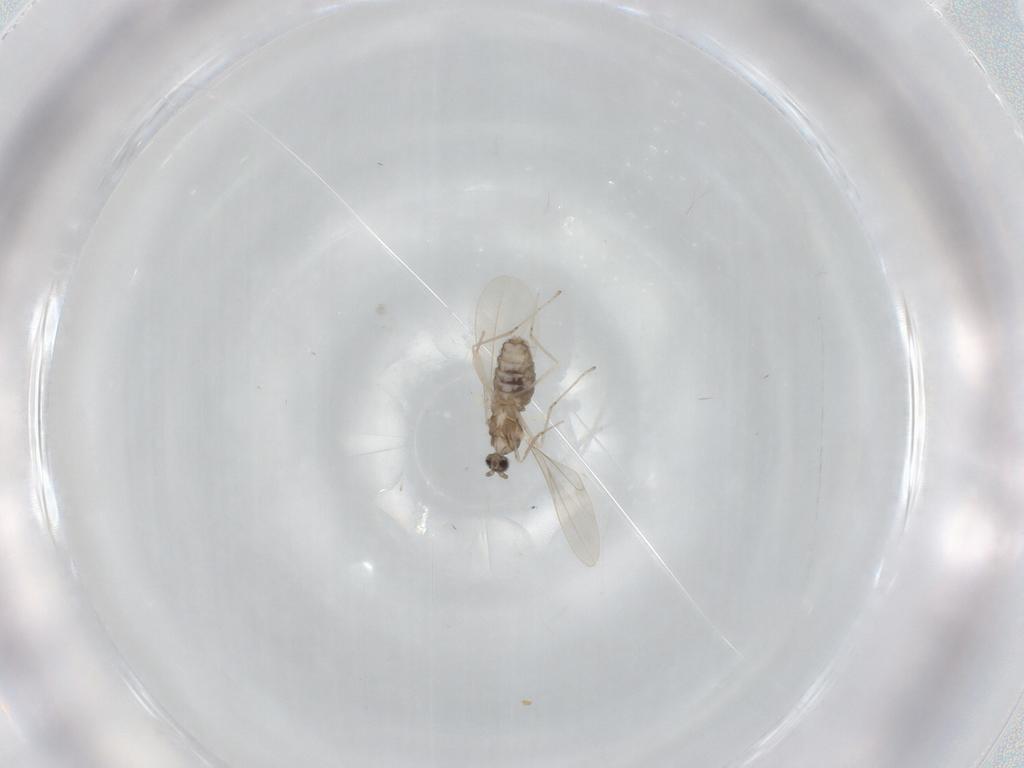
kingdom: Animalia
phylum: Arthropoda
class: Insecta
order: Diptera
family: Cecidomyiidae
